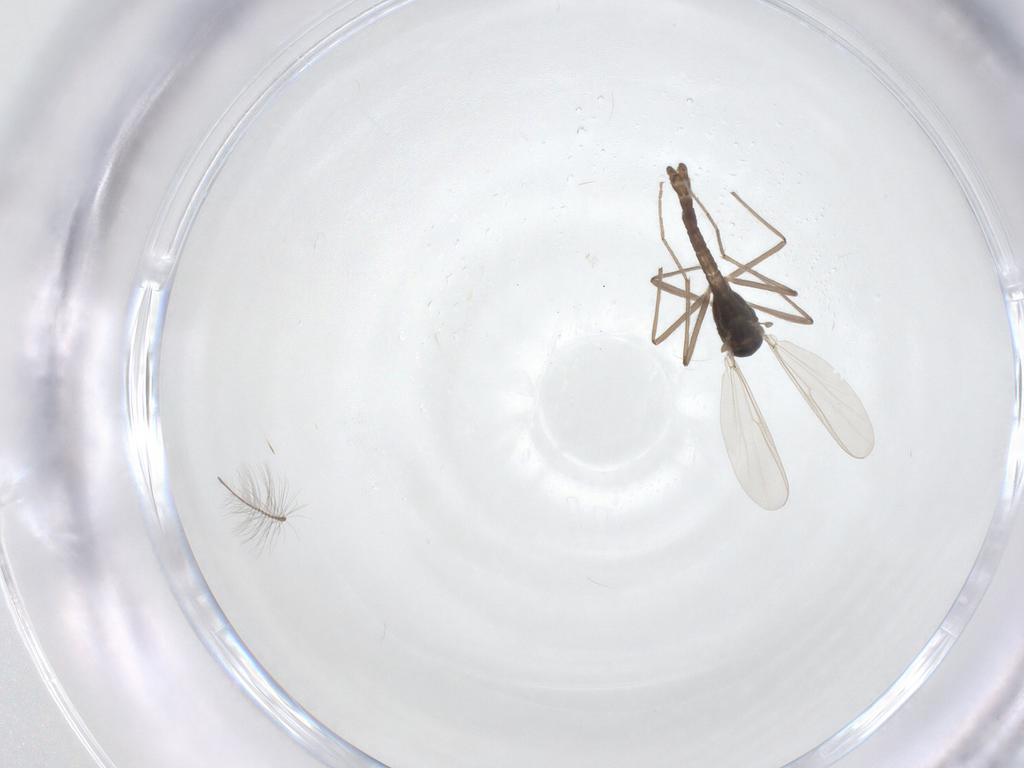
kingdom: Animalia
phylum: Arthropoda
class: Insecta
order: Diptera
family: Chironomidae
